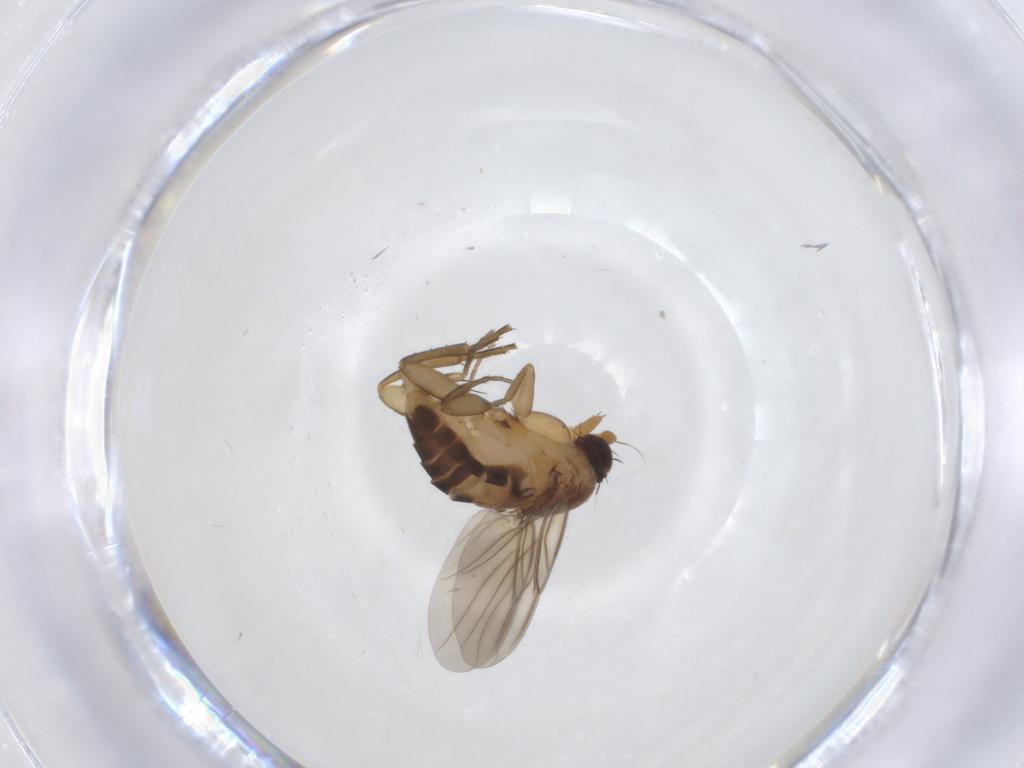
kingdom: Animalia
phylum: Arthropoda
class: Insecta
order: Diptera
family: Phoridae
